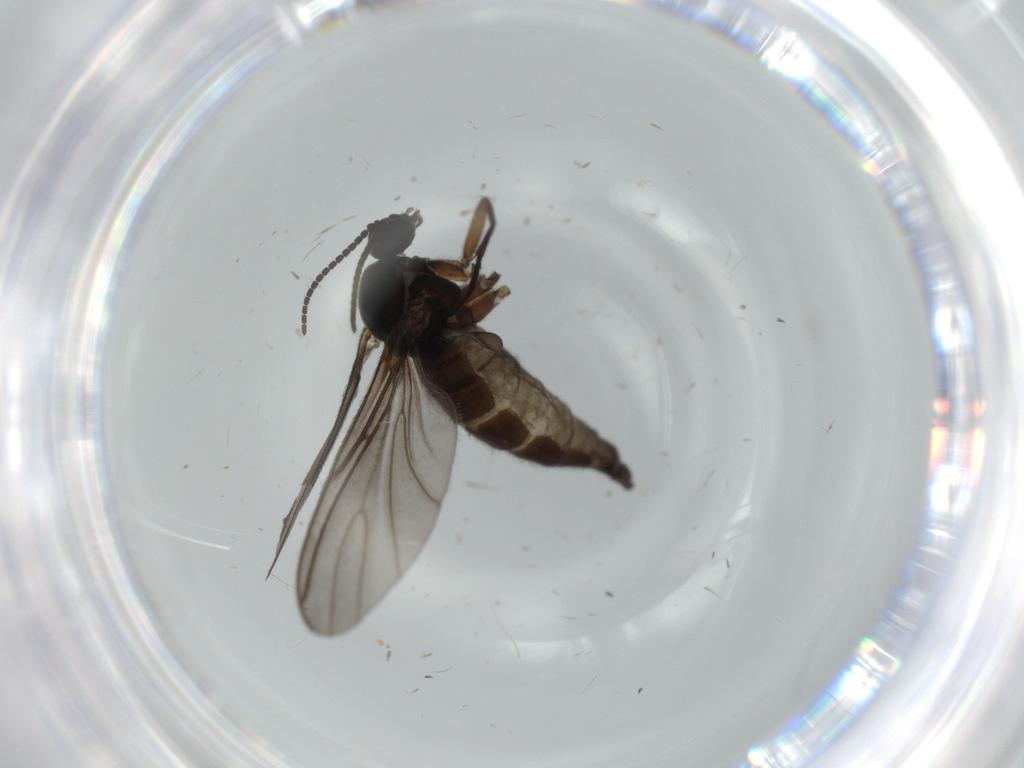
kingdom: Animalia
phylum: Arthropoda
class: Insecta
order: Diptera
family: Sciaridae
